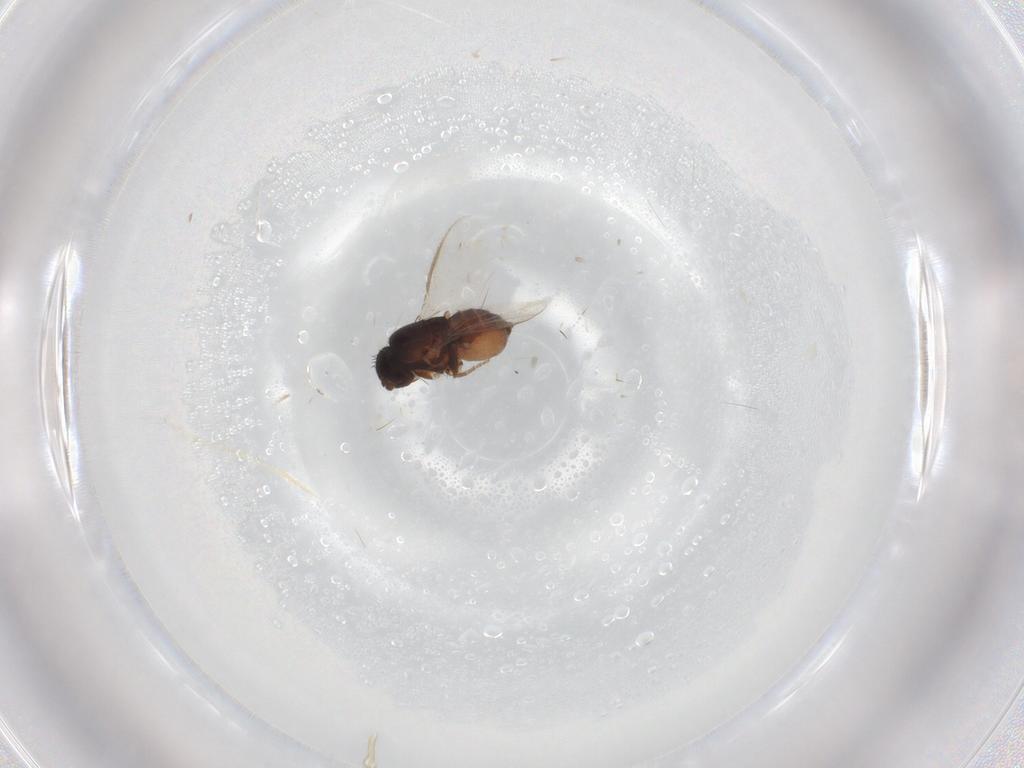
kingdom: Animalia
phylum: Arthropoda
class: Insecta
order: Diptera
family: Sphaeroceridae
